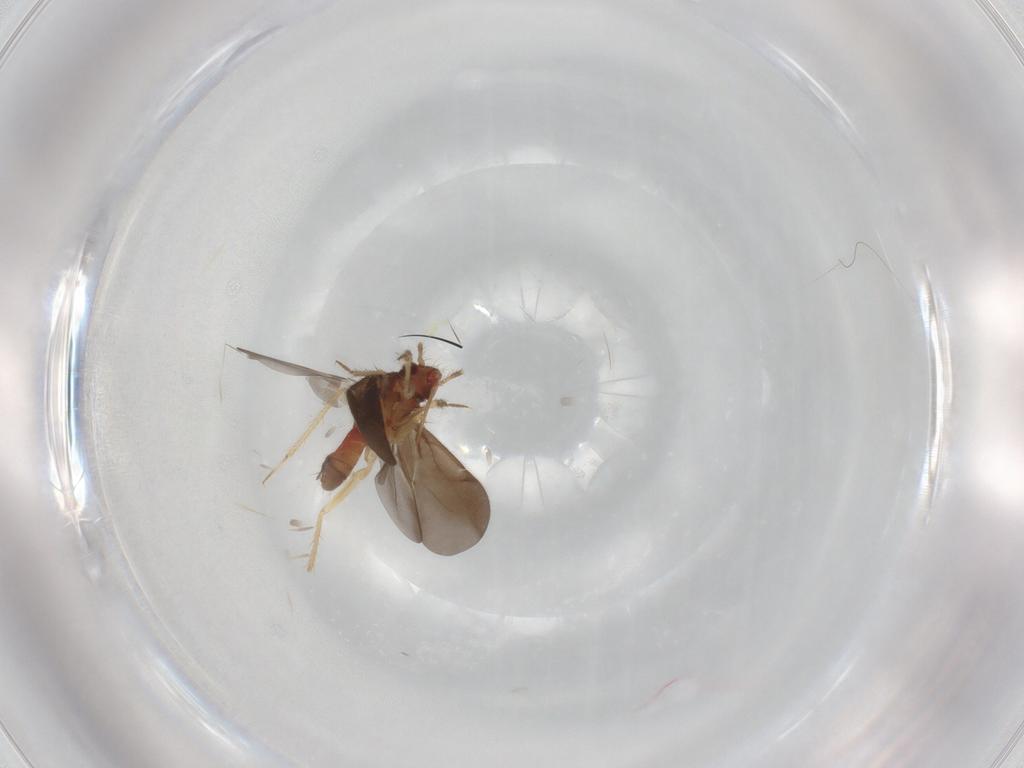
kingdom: Animalia
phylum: Arthropoda
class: Insecta
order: Hemiptera
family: Aleyrodidae
